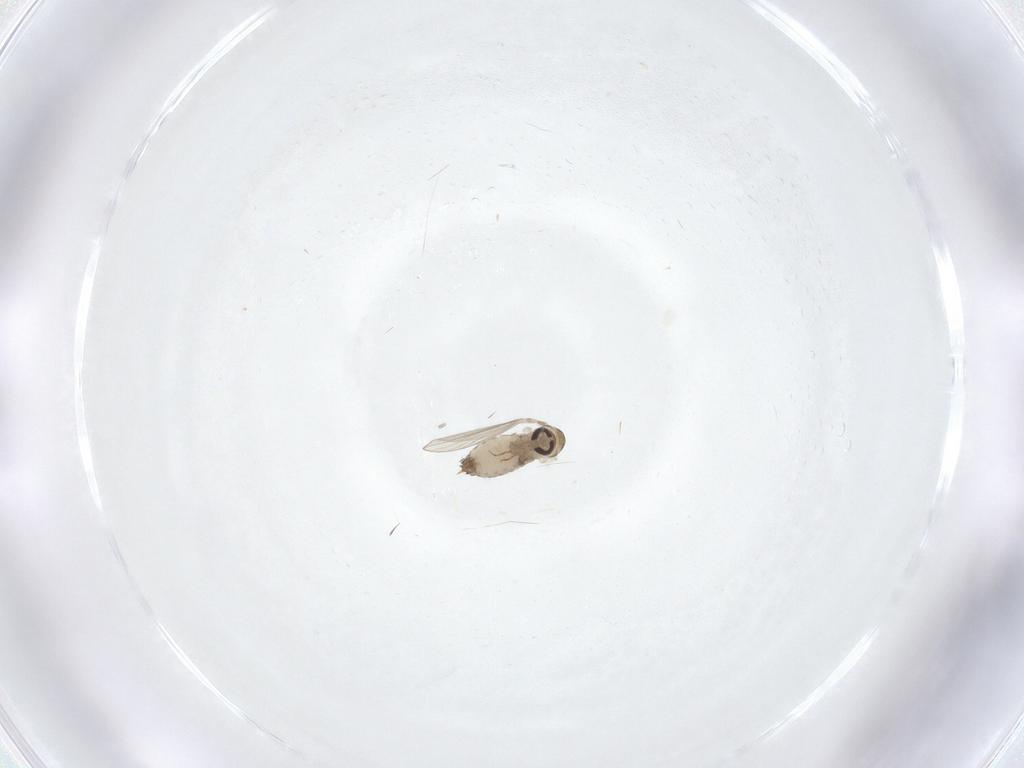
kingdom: Animalia
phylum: Arthropoda
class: Insecta
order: Diptera
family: Psychodidae
